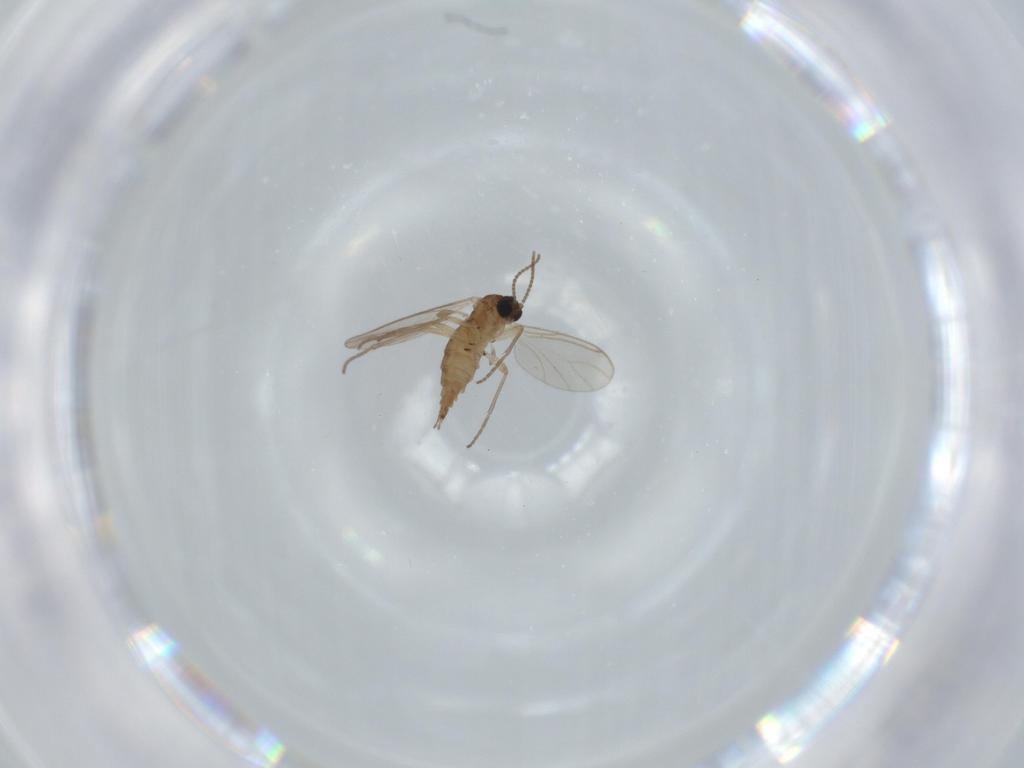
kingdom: Animalia
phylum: Arthropoda
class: Insecta
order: Diptera
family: Sciaridae
